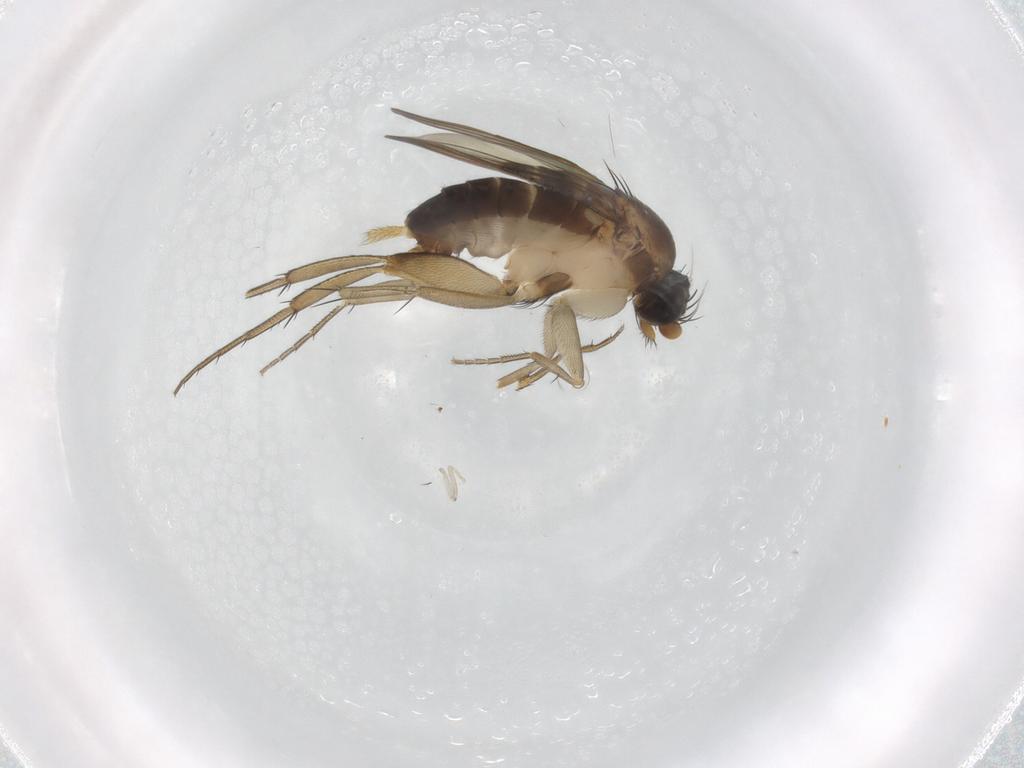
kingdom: Animalia
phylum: Arthropoda
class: Insecta
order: Diptera
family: Phoridae
